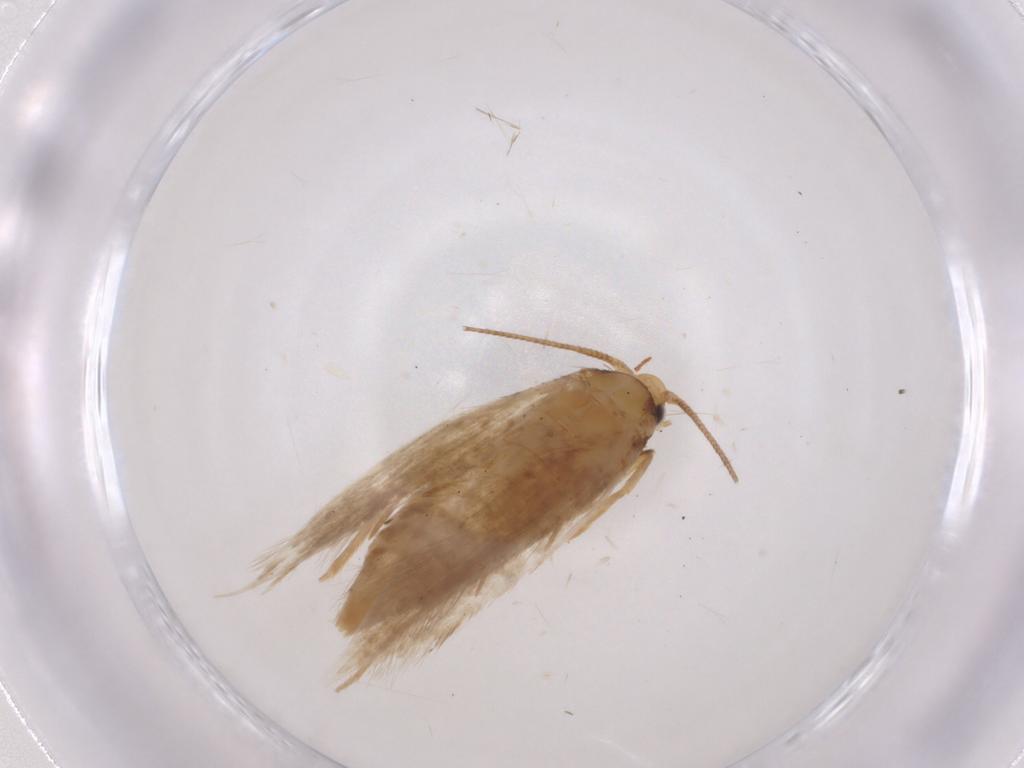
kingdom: Animalia
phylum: Arthropoda
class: Insecta
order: Lepidoptera
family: Tineidae
